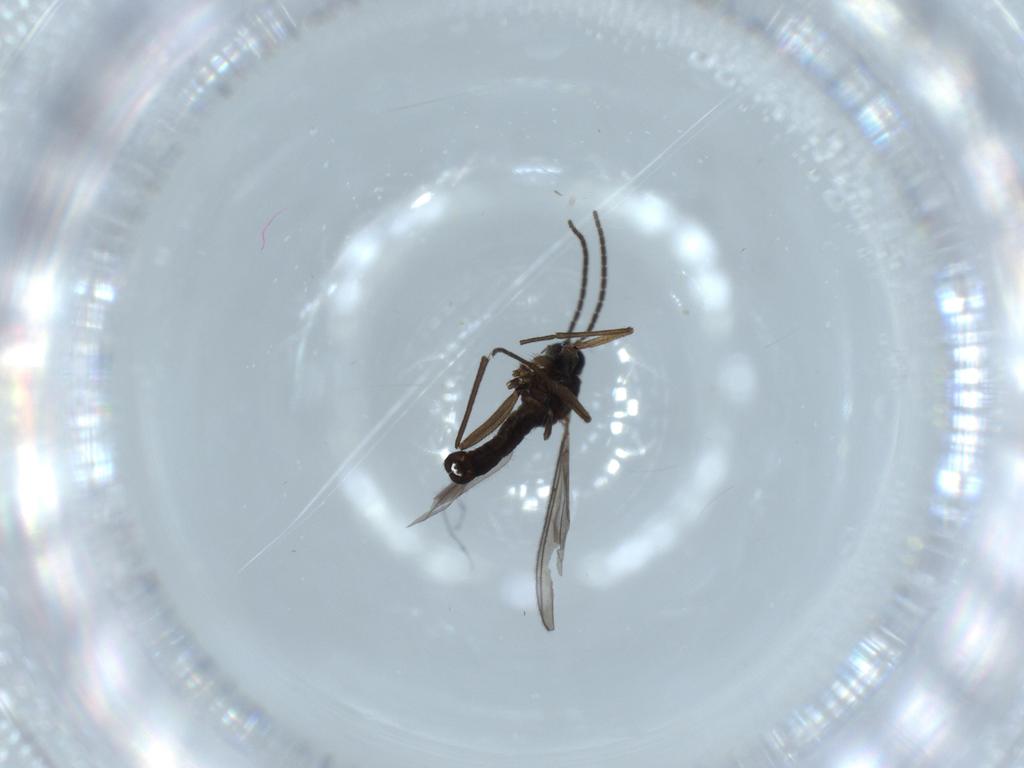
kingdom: Animalia
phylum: Arthropoda
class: Insecta
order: Diptera
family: Sciaridae
